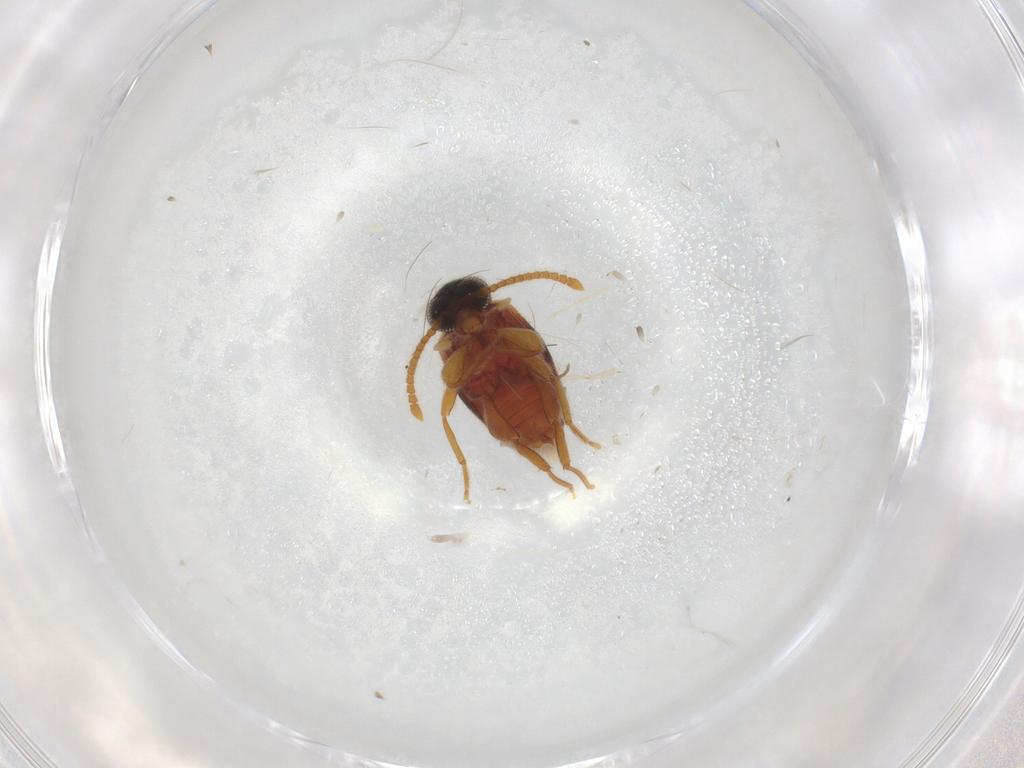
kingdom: Animalia
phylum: Arthropoda
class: Insecta
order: Coleoptera
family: Aderidae
